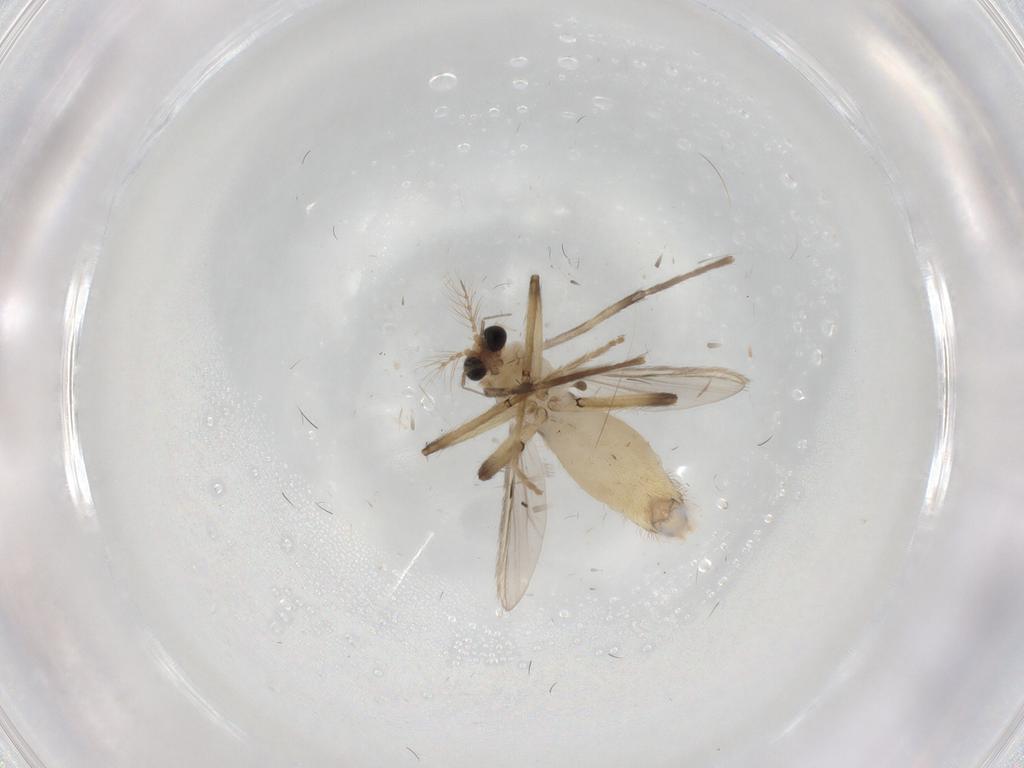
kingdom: Animalia
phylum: Arthropoda
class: Insecta
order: Diptera
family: Chironomidae
